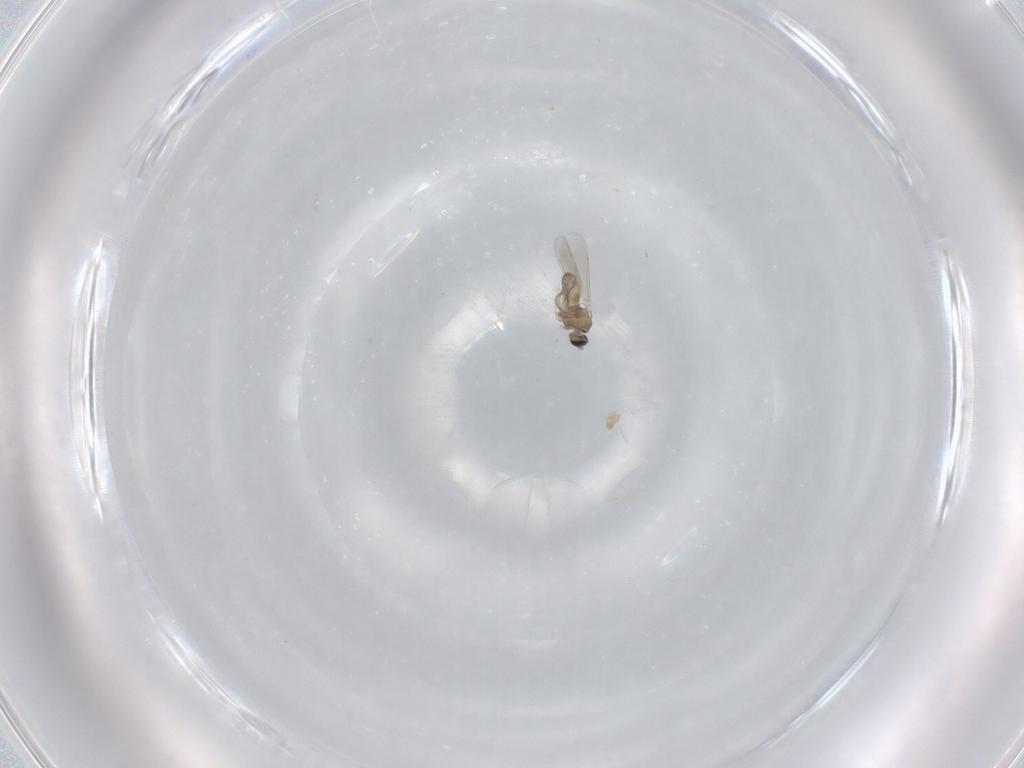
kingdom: Animalia
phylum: Arthropoda
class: Insecta
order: Diptera
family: Cecidomyiidae
